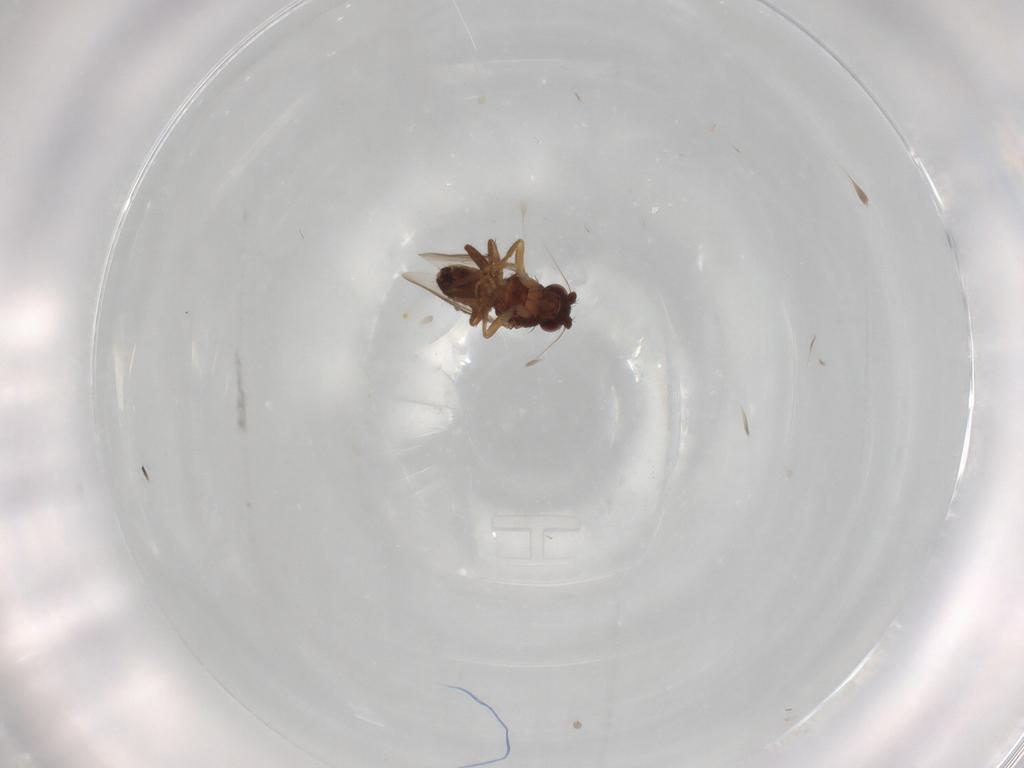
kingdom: Animalia
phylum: Arthropoda
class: Insecta
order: Diptera
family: Sphaeroceridae
